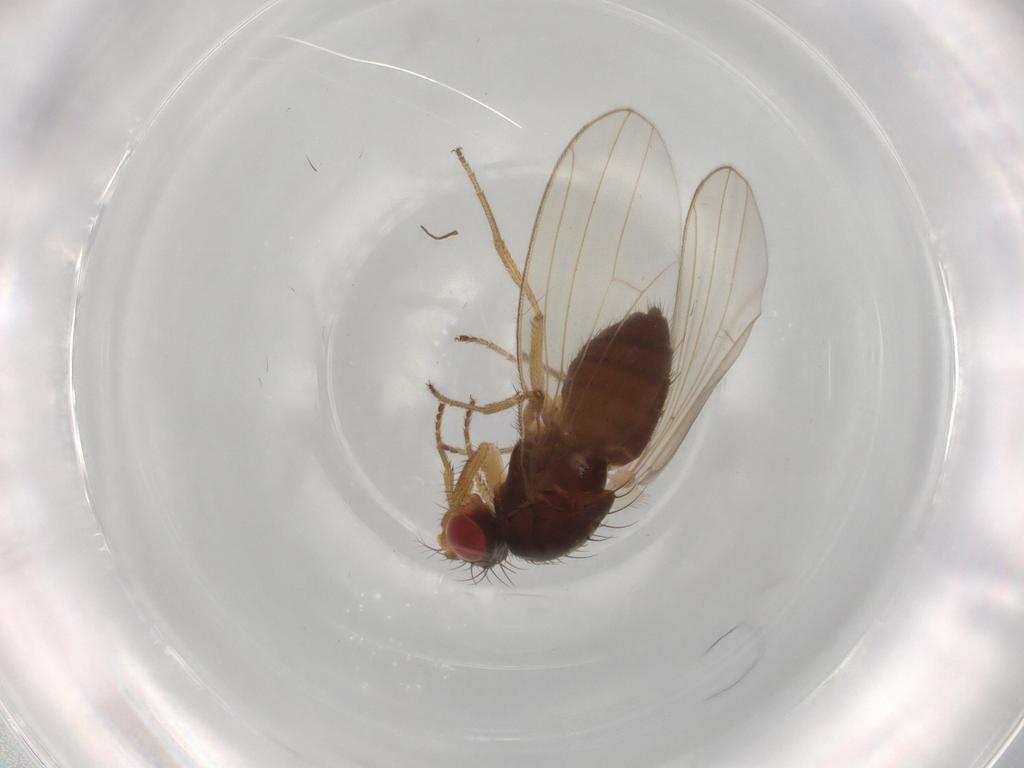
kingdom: Animalia
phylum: Arthropoda
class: Insecta
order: Diptera
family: Drosophilidae
